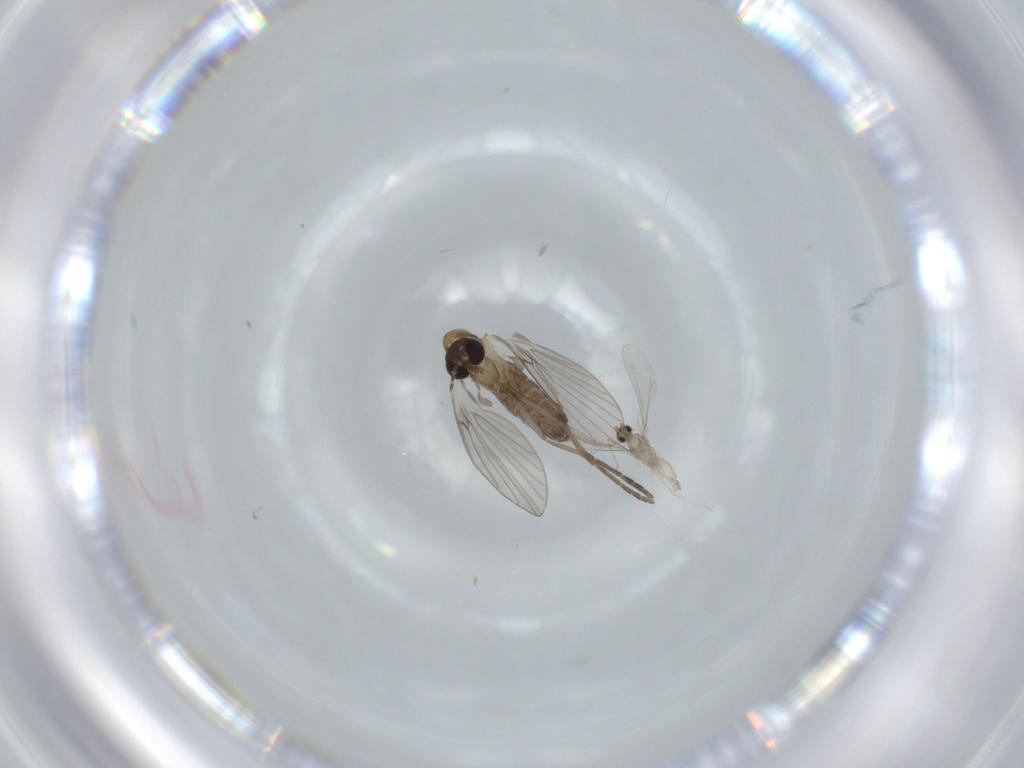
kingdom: Animalia
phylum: Arthropoda
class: Insecta
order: Diptera
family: Psychodidae
